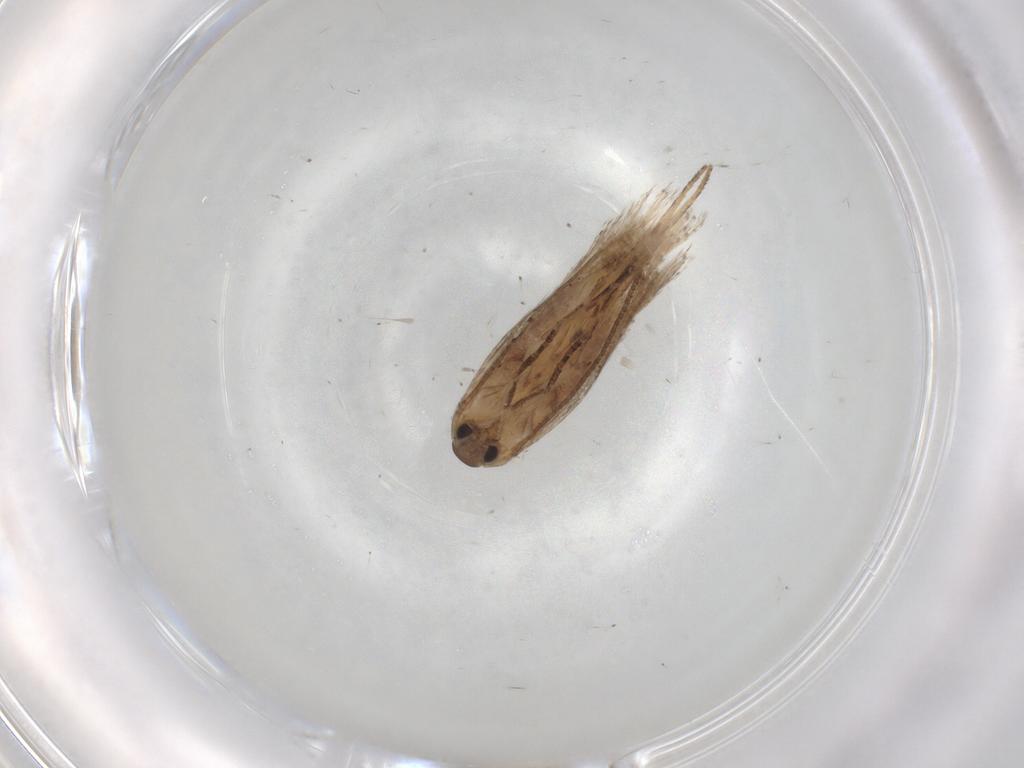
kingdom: Animalia
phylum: Arthropoda
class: Insecta
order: Lepidoptera
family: Elachistidae
